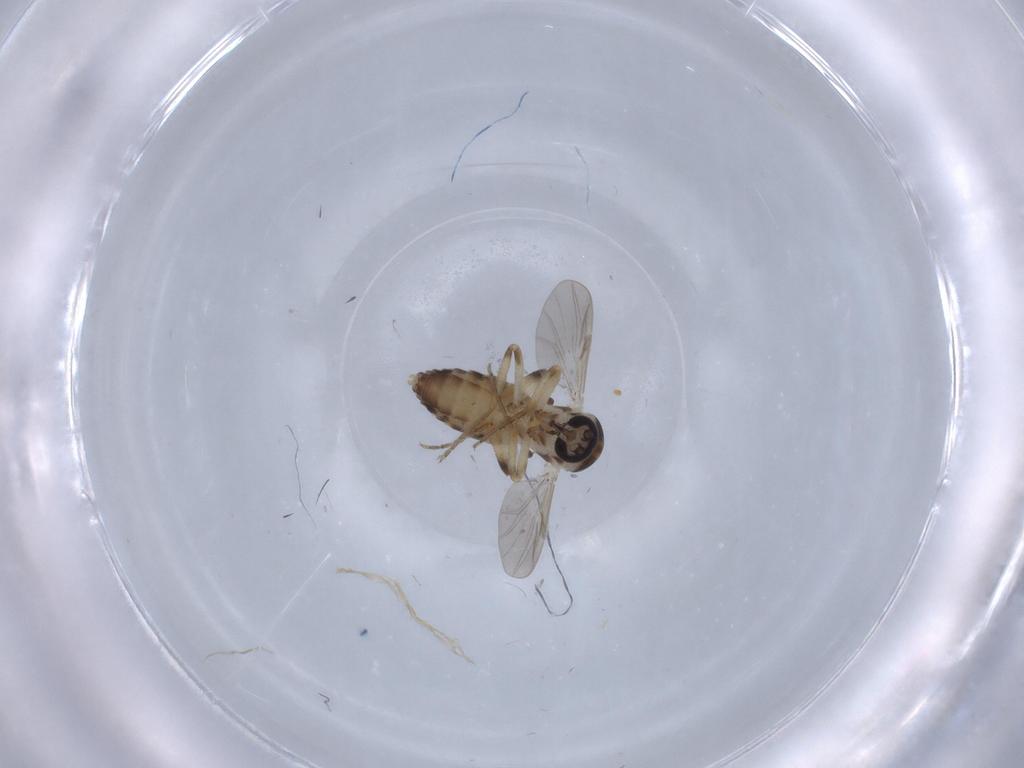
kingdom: Animalia
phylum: Arthropoda
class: Insecta
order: Diptera
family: Ceratopogonidae
